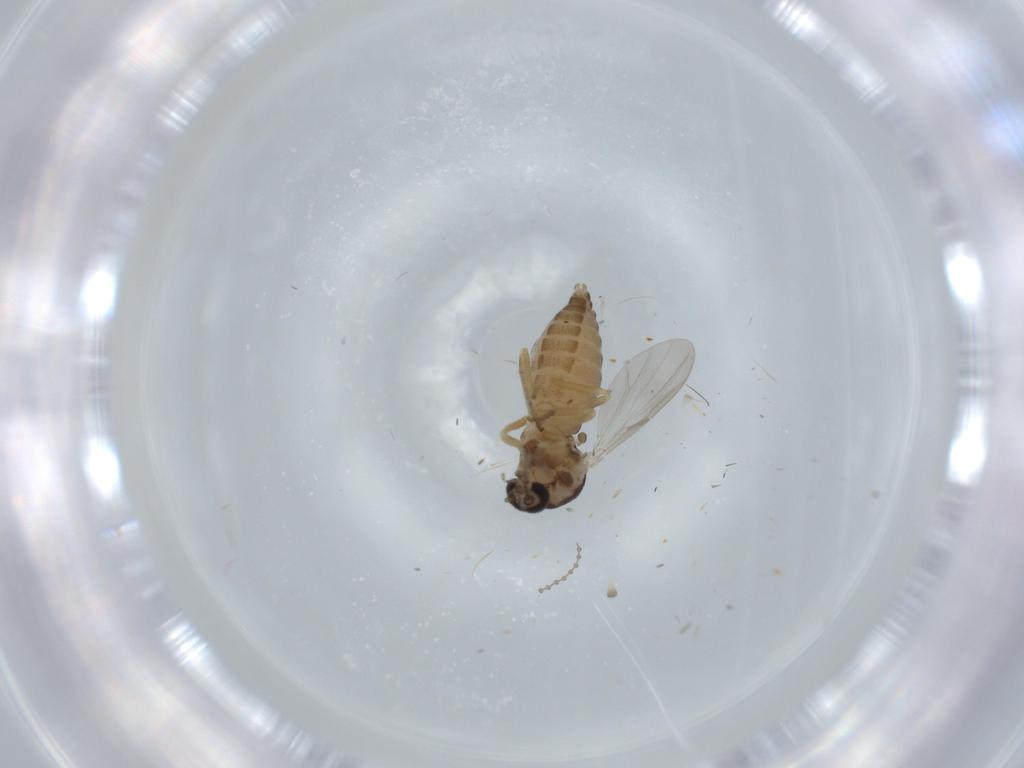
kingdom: Animalia
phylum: Arthropoda
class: Insecta
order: Diptera
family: Ceratopogonidae
